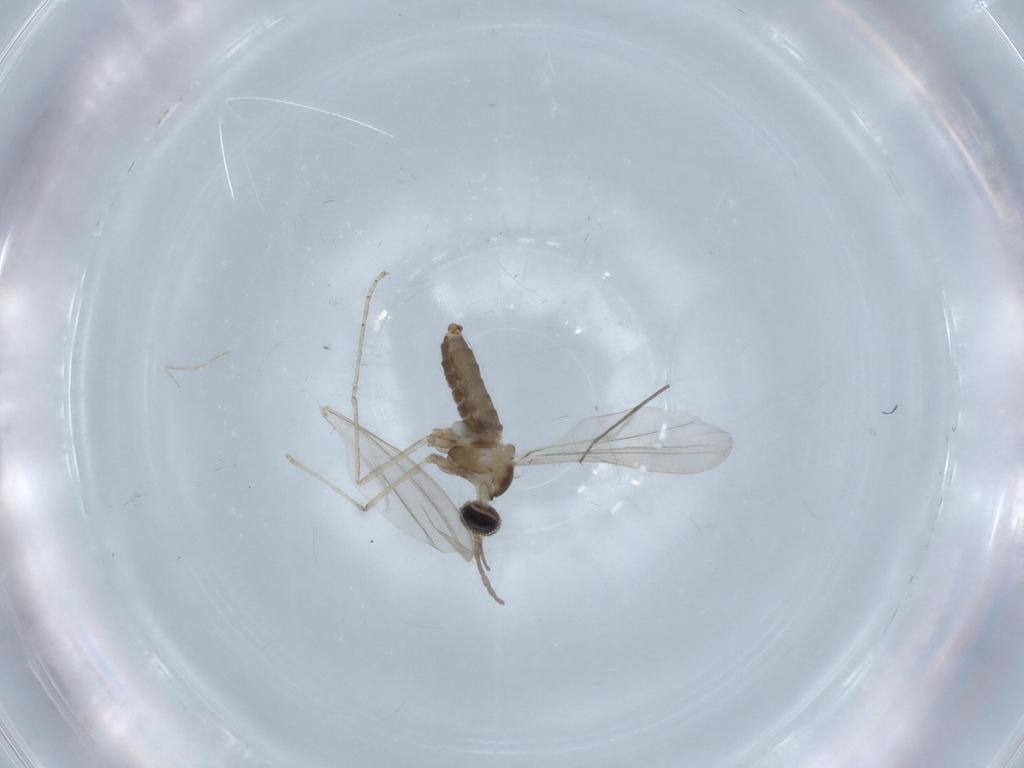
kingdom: Animalia
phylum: Arthropoda
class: Insecta
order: Diptera
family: Chironomidae
